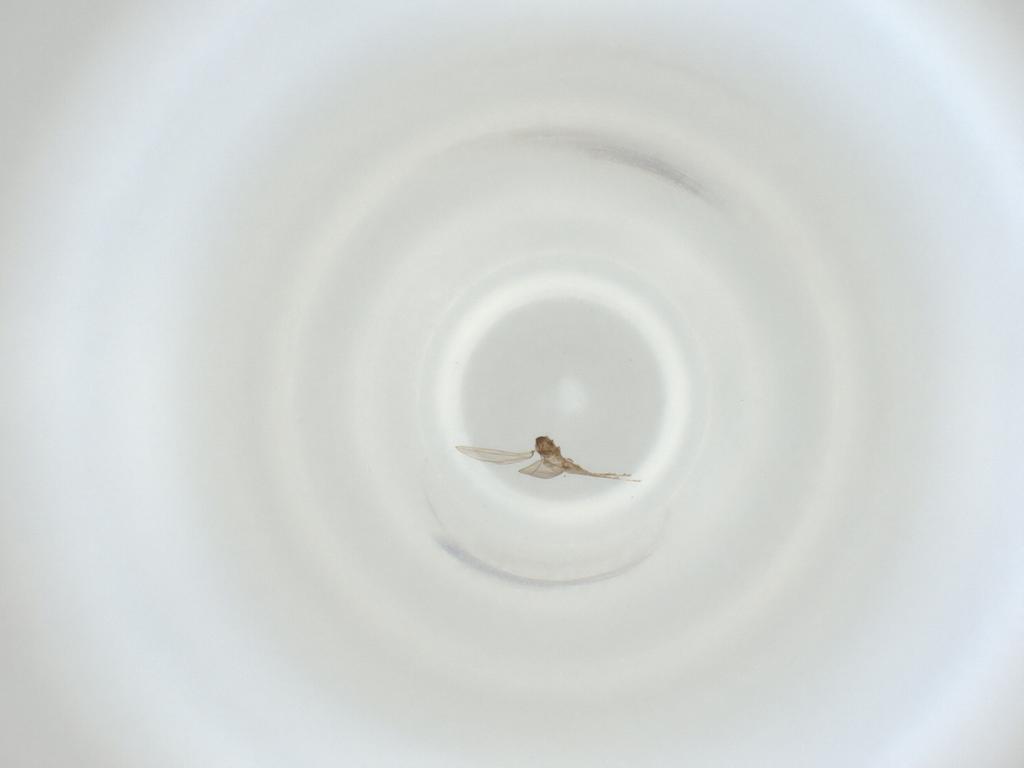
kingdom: Animalia
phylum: Arthropoda
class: Insecta
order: Diptera
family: Cecidomyiidae
